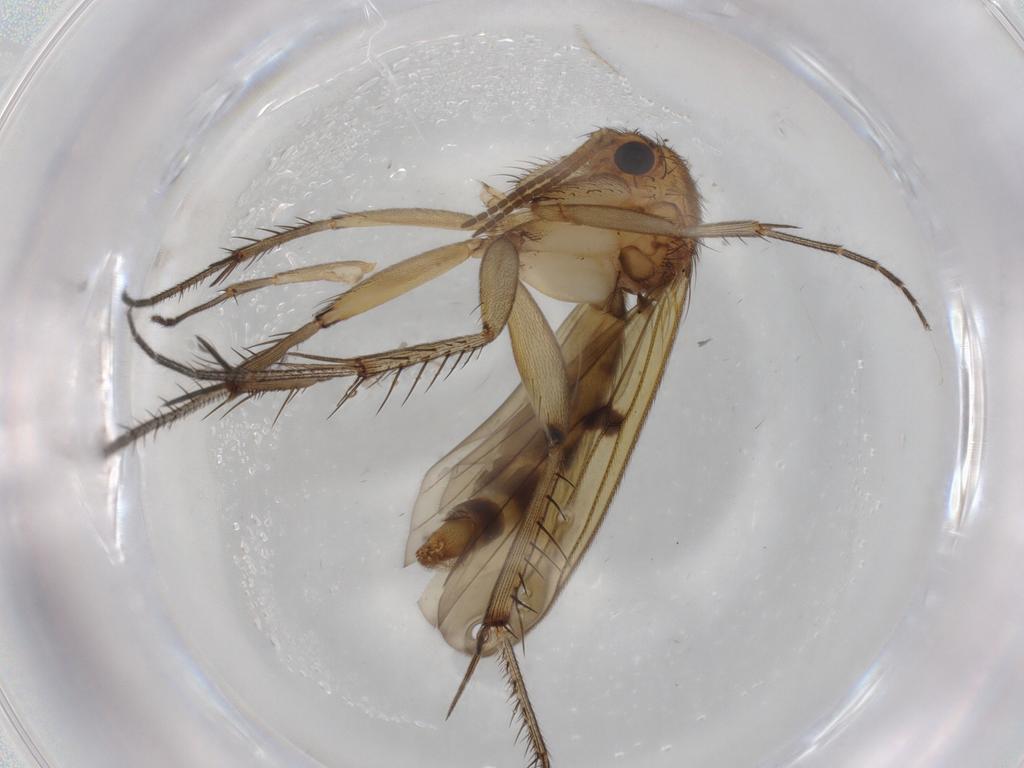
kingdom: Animalia
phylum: Arthropoda
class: Insecta
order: Diptera
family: Mycetophilidae
